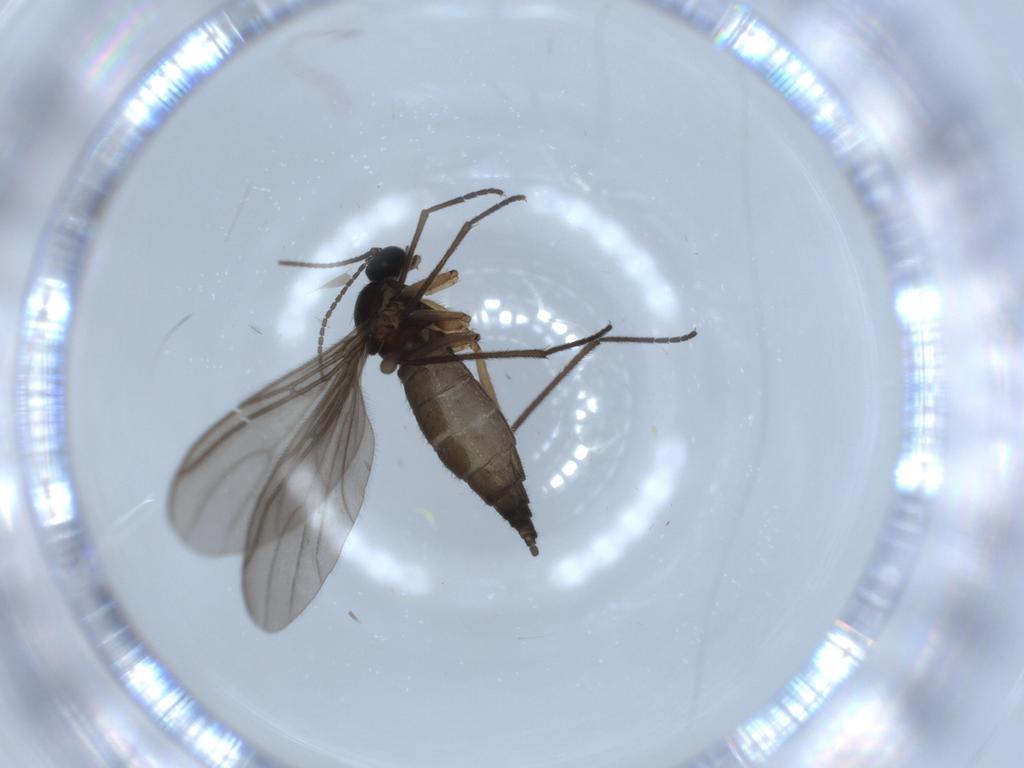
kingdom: Animalia
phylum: Arthropoda
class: Insecta
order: Diptera
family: Sciaridae
